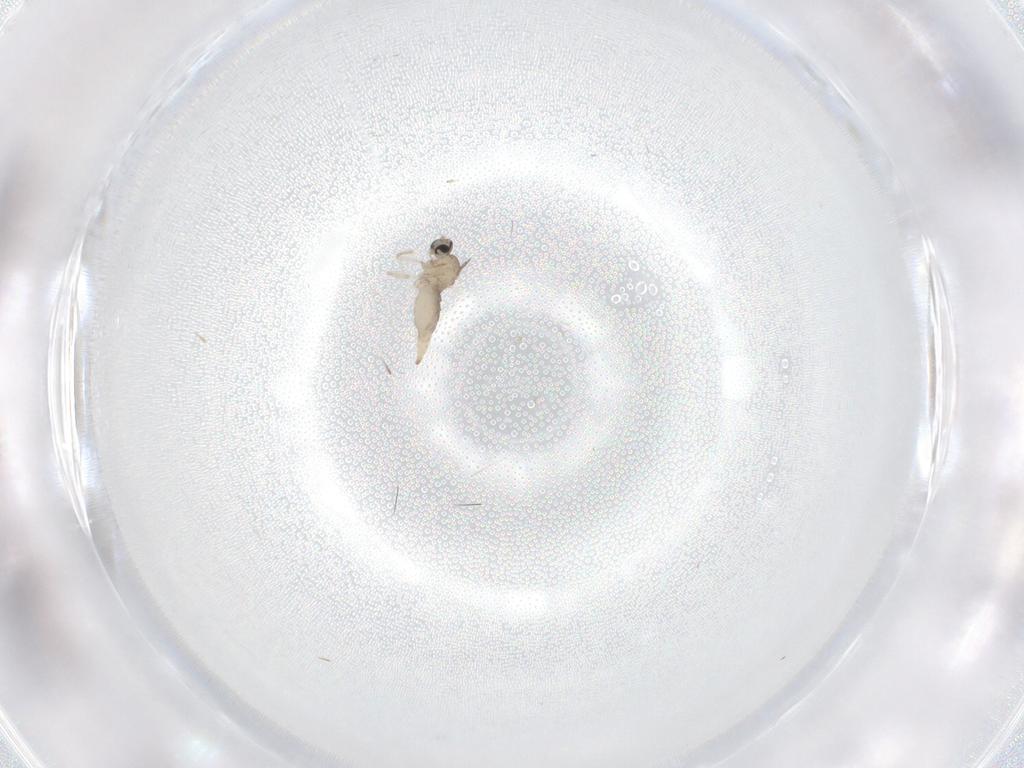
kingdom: Animalia
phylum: Arthropoda
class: Insecta
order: Diptera
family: Cecidomyiidae
